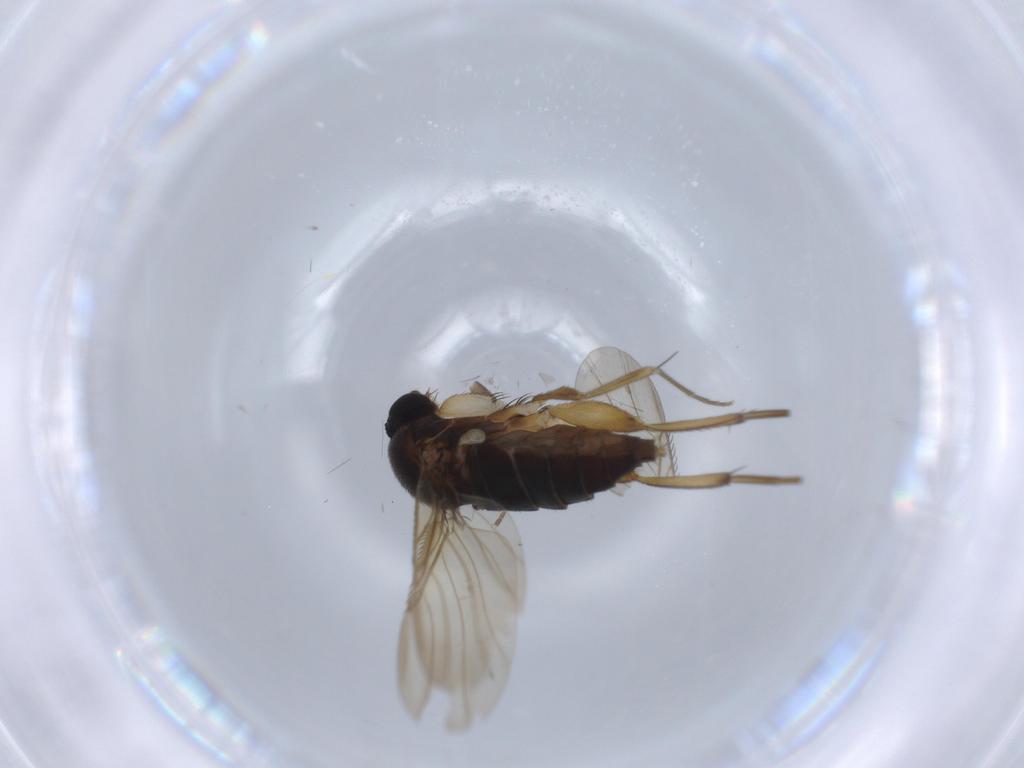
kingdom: Animalia
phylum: Arthropoda
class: Insecta
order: Diptera
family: Phoridae
